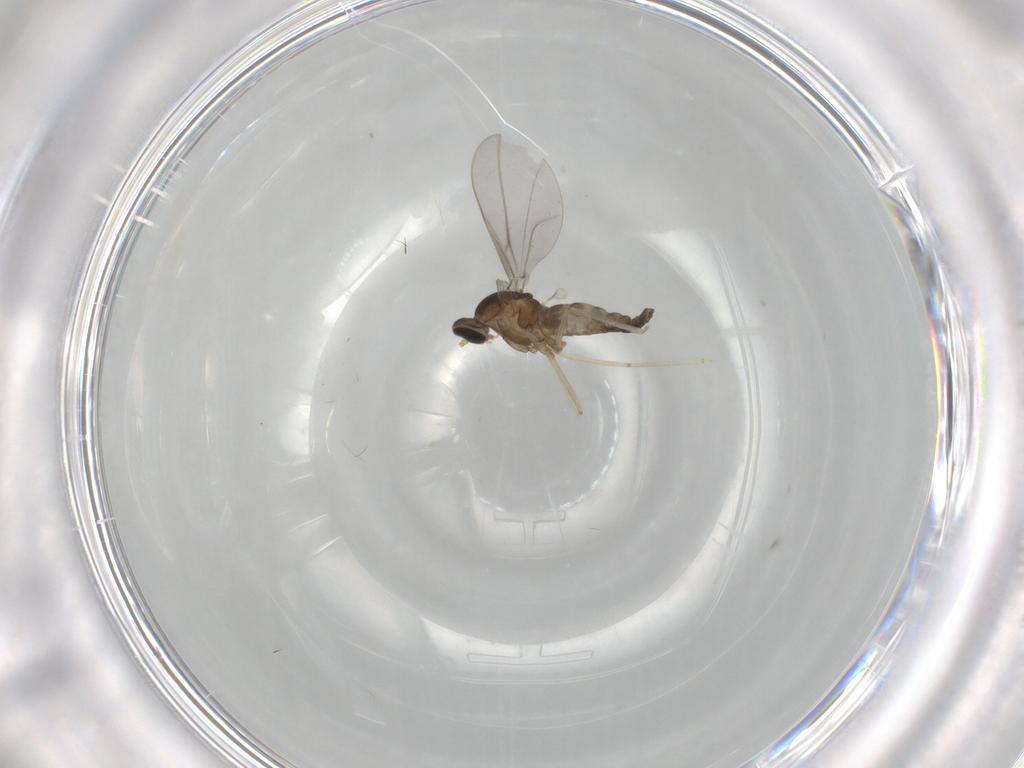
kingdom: Animalia
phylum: Arthropoda
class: Insecta
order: Diptera
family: Cecidomyiidae
